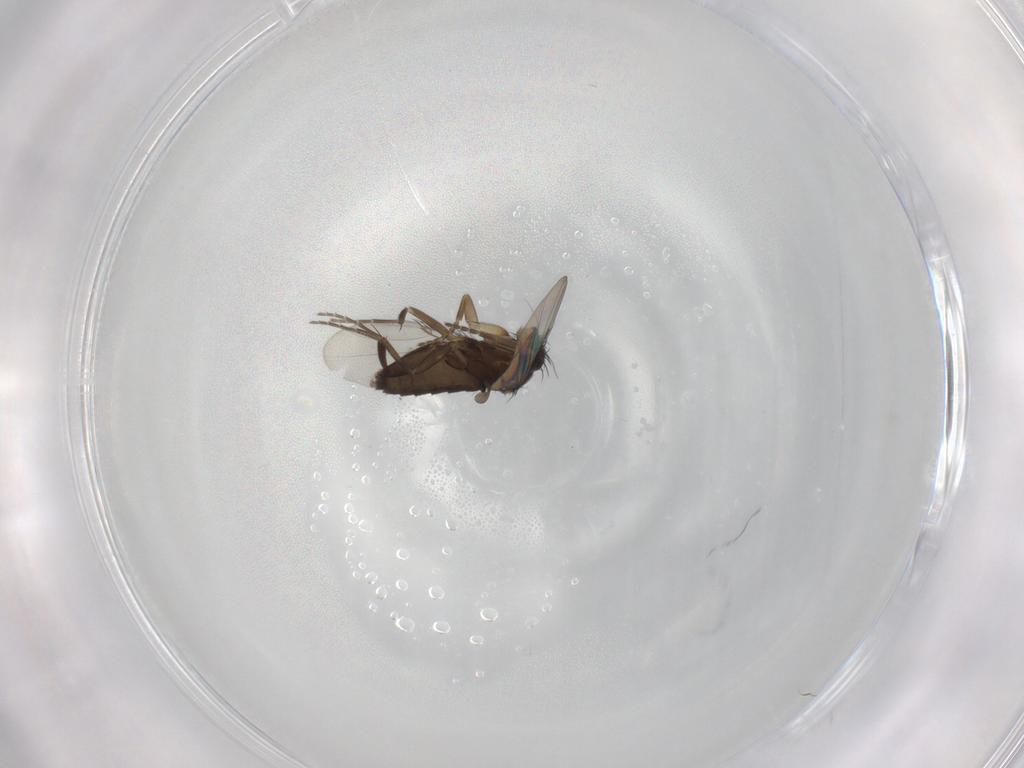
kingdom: Animalia
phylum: Arthropoda
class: Insecta
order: Diptera
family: Phoridae
